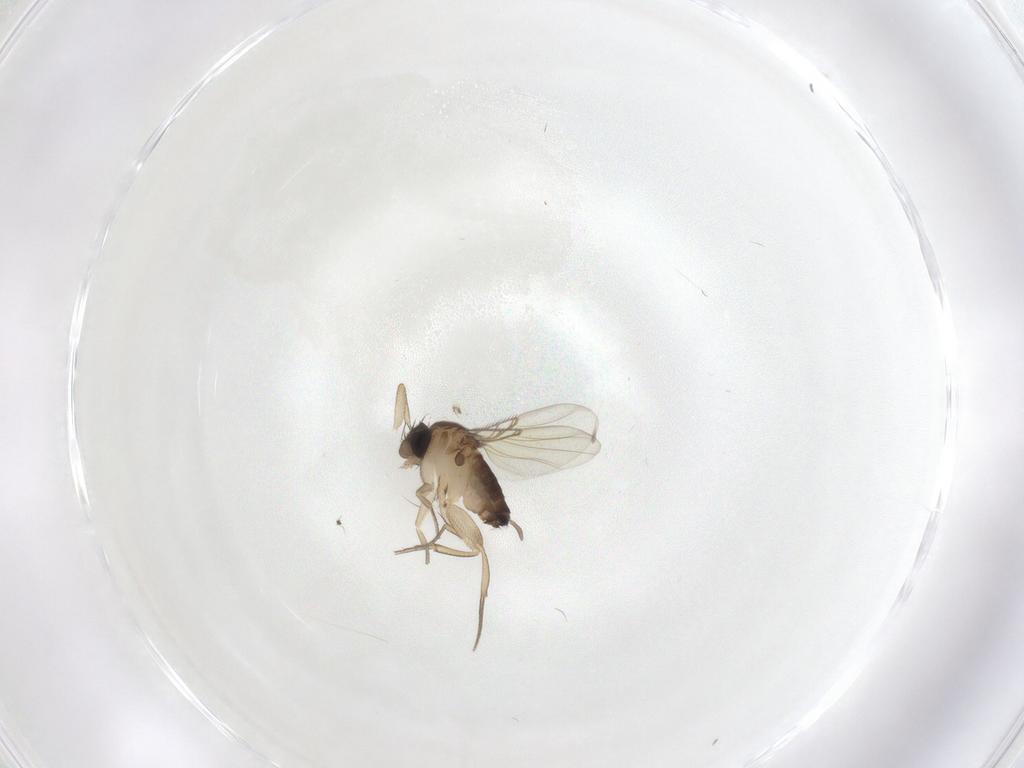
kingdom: Animalia
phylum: Arthropoda
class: Insecta
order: Diptera
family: Phoridae
